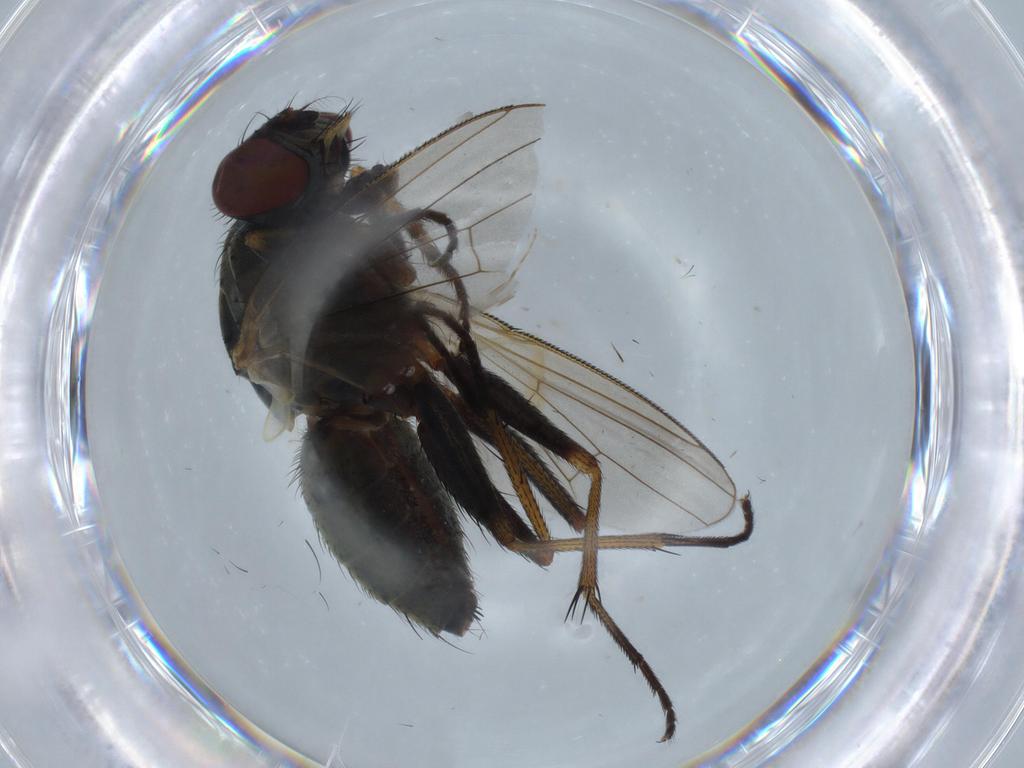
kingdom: Animalia
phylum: Arthropoda
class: Insecta
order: Diptera
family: Ceratopogonidae
